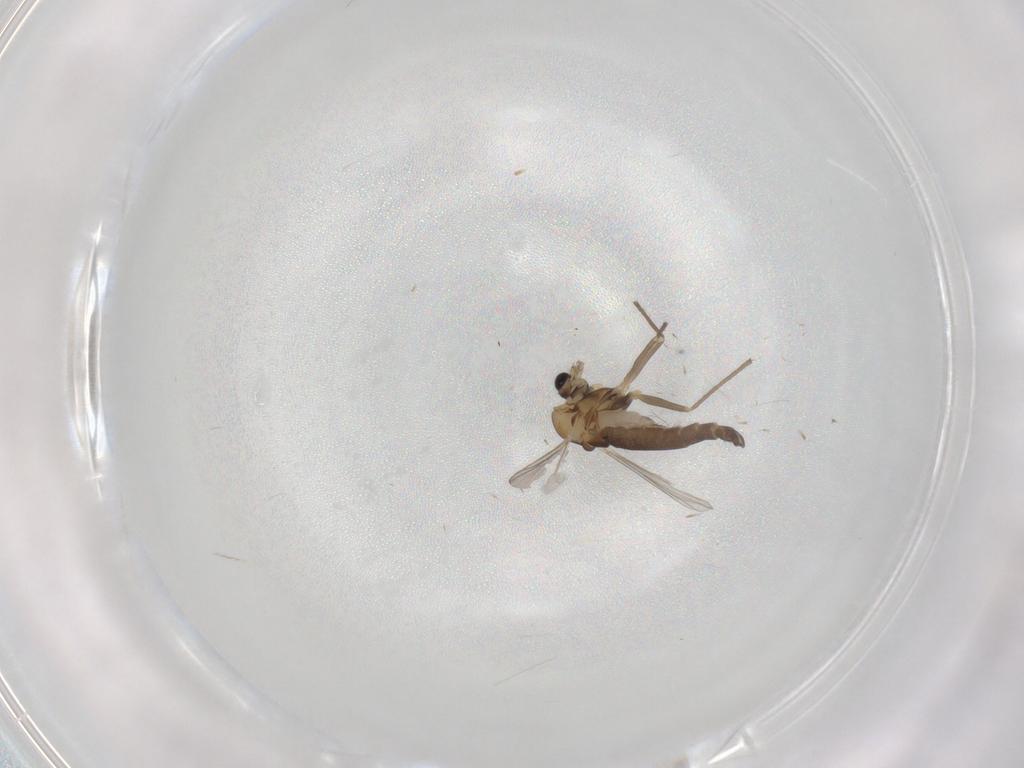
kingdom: Animalia
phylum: Arthropoda
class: Insecta
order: Diptera
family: Chironomidae
